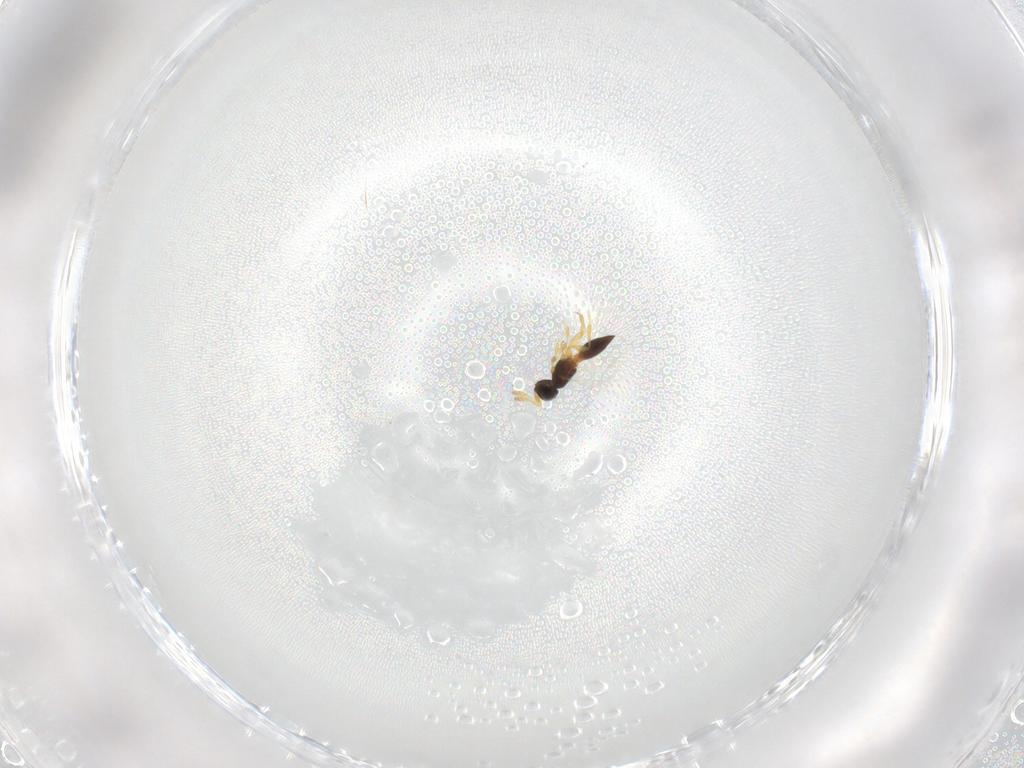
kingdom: Animalia
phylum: Arthropoda
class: Insecta
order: Hymenoptera
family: Platygastridae
